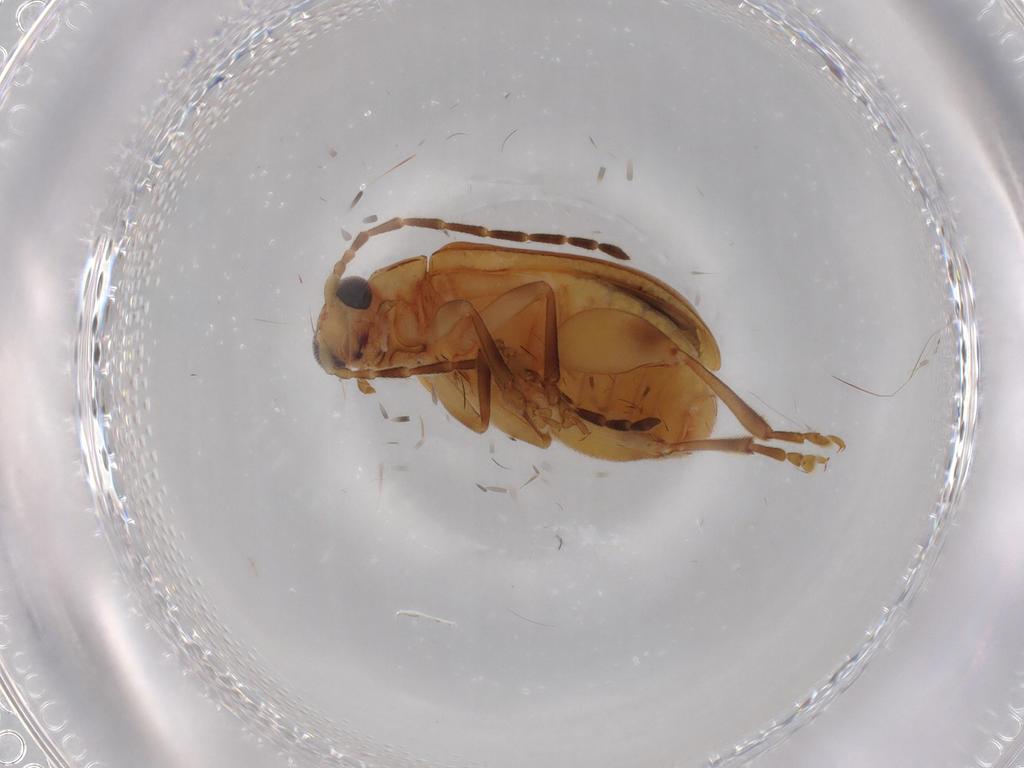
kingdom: Animalia
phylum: Arthropoda
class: Insecta
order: Coleoptera
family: Chrysomelidae
